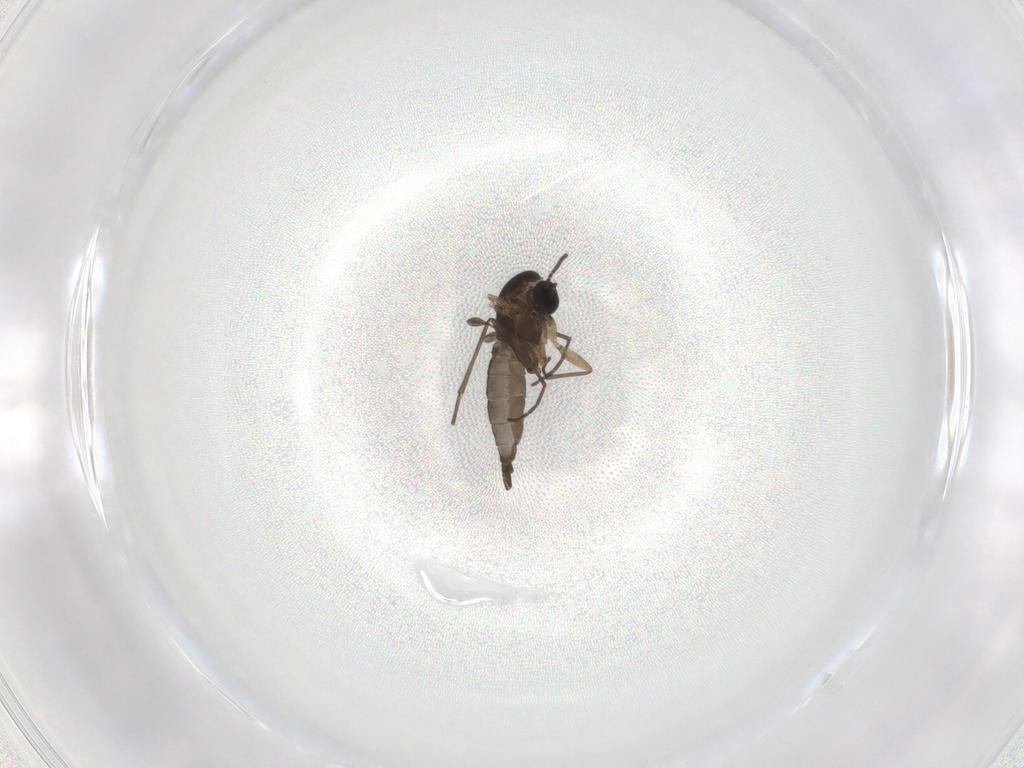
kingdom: Animalia
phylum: Arthropoda
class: Insecta
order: Diptera
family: Sciaridae
